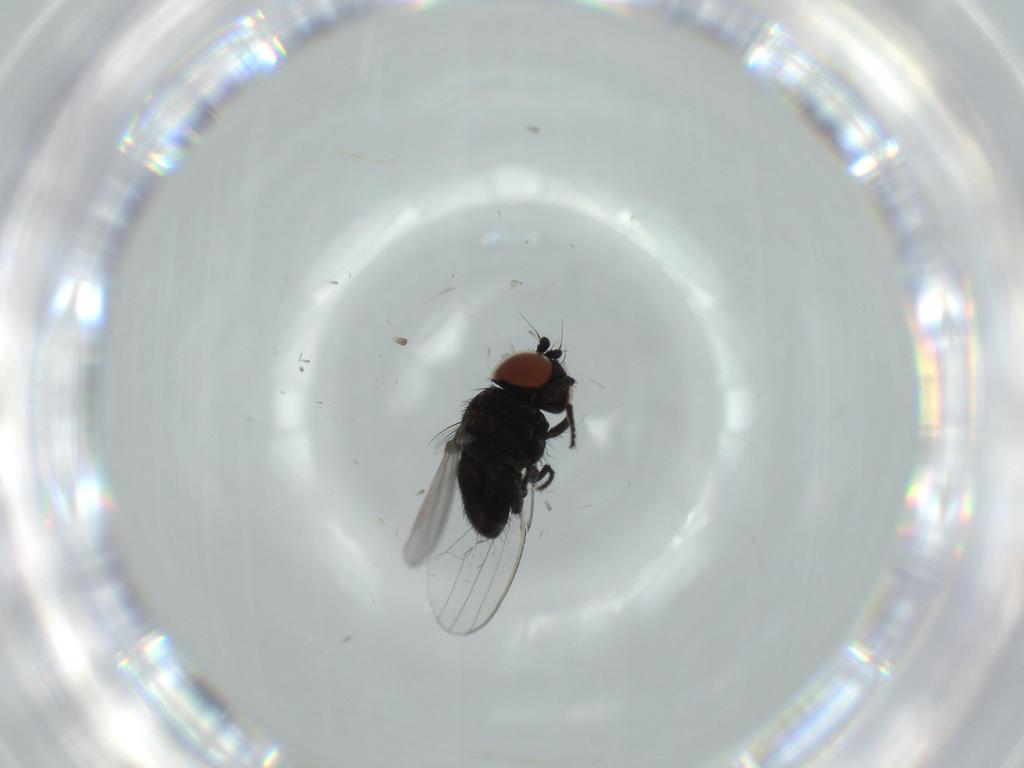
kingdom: Animalia
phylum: Arthropoda
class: Insecta
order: Diptera
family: Milichiidae
